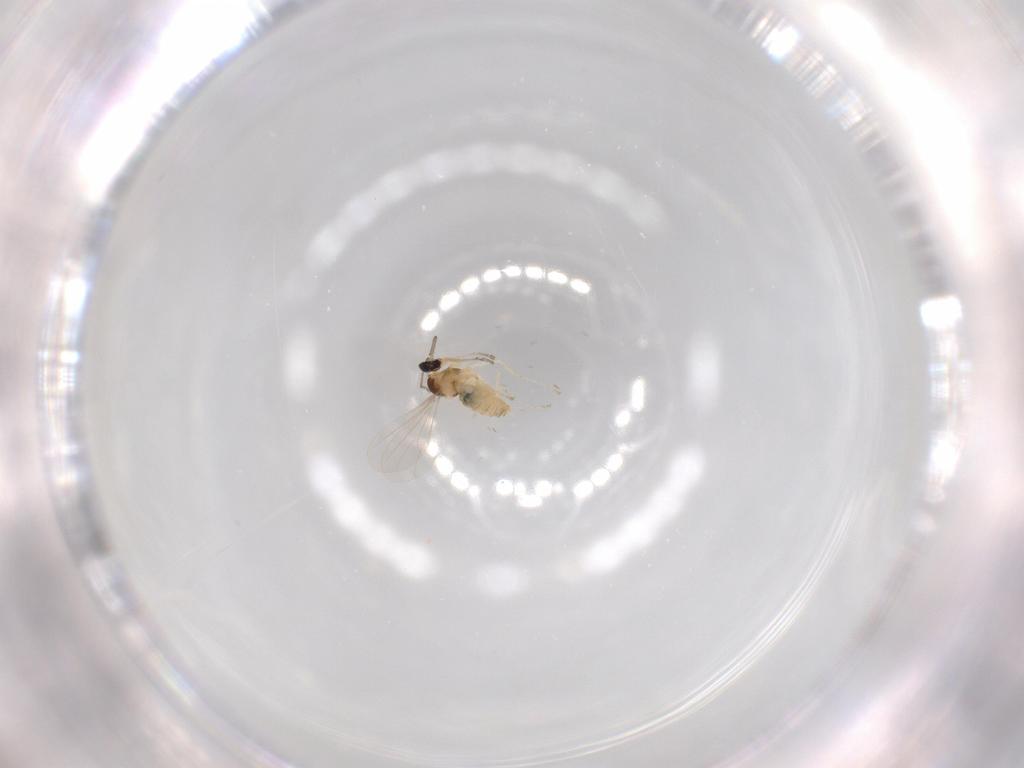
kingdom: Animalia
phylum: Arthropoda
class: Insecta
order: Diptera
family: Cecidomyiidae
